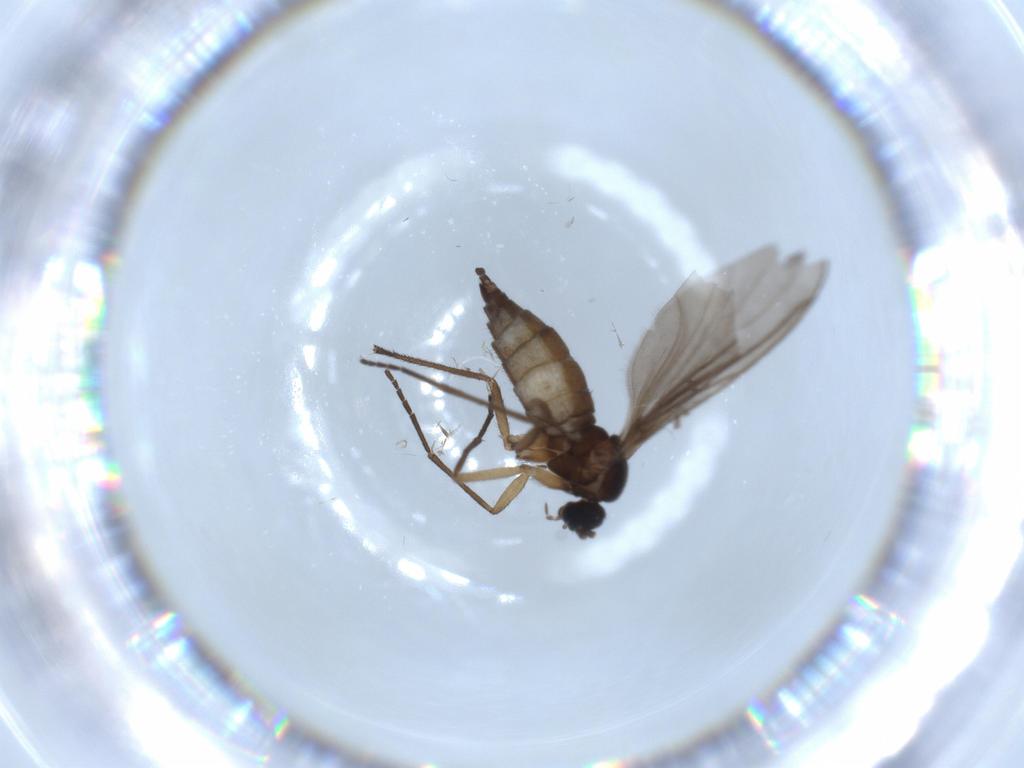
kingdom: Animalia
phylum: Arthropoda
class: Insecta
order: Diptera
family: Sciaridae
